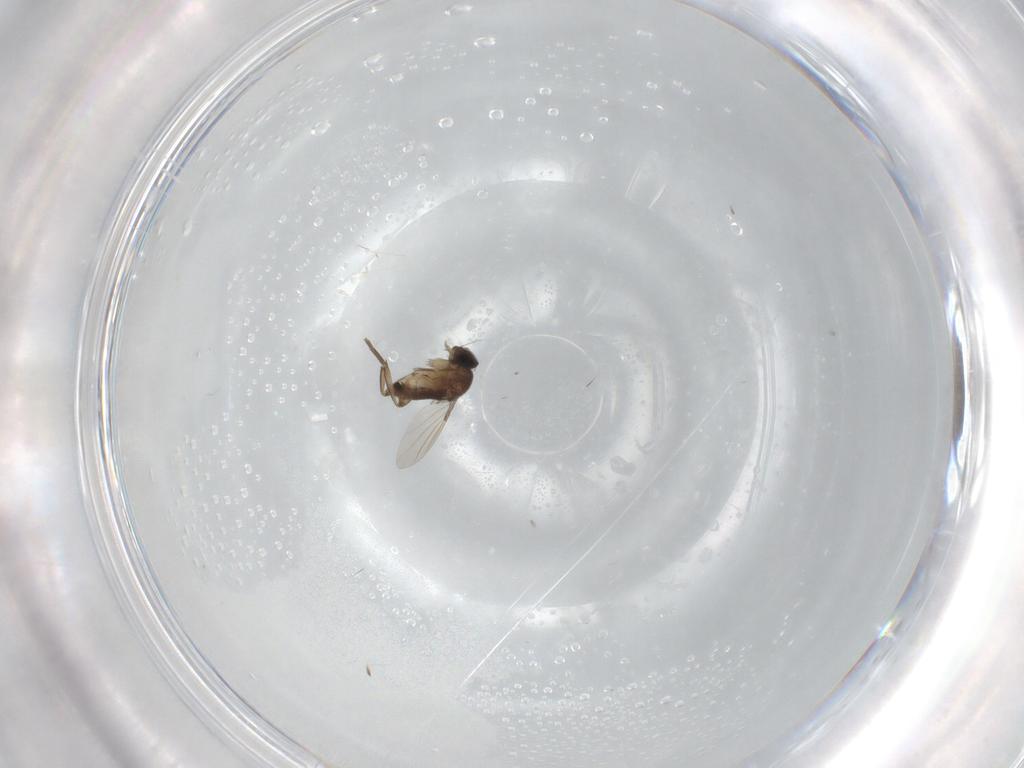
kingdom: Animalia
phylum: Arthropoda
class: Insecta
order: Diptera
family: Phoridae
